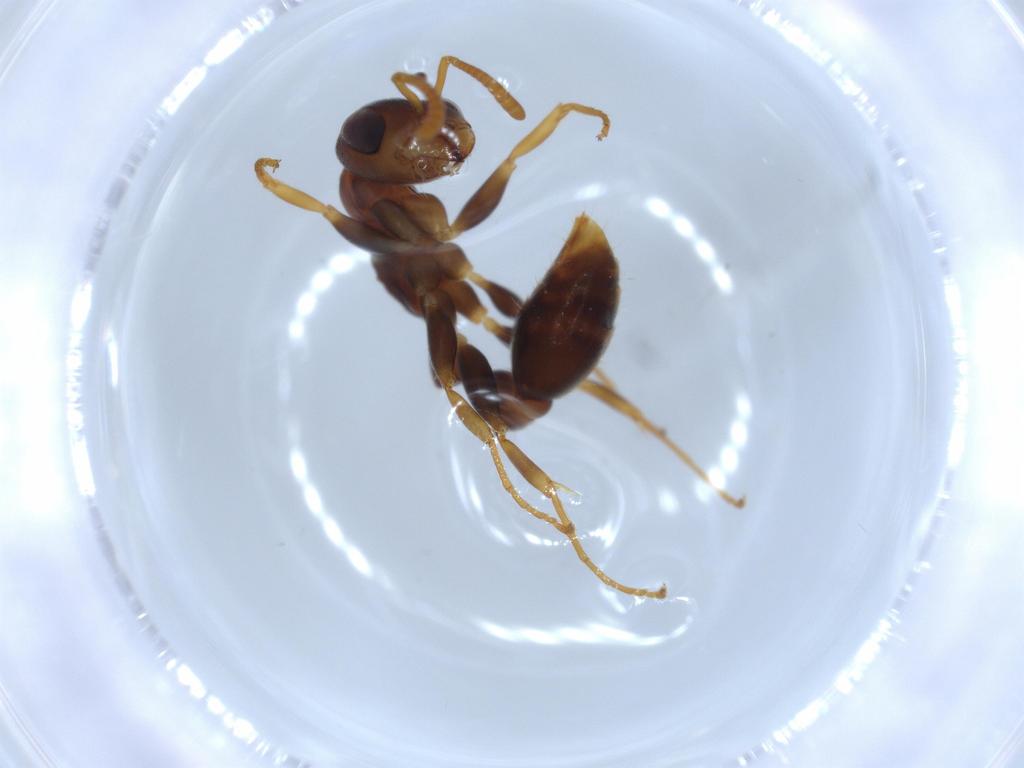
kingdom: Animalia
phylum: Arthropoda
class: Insecta
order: Hymenoptera
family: Formicidae
